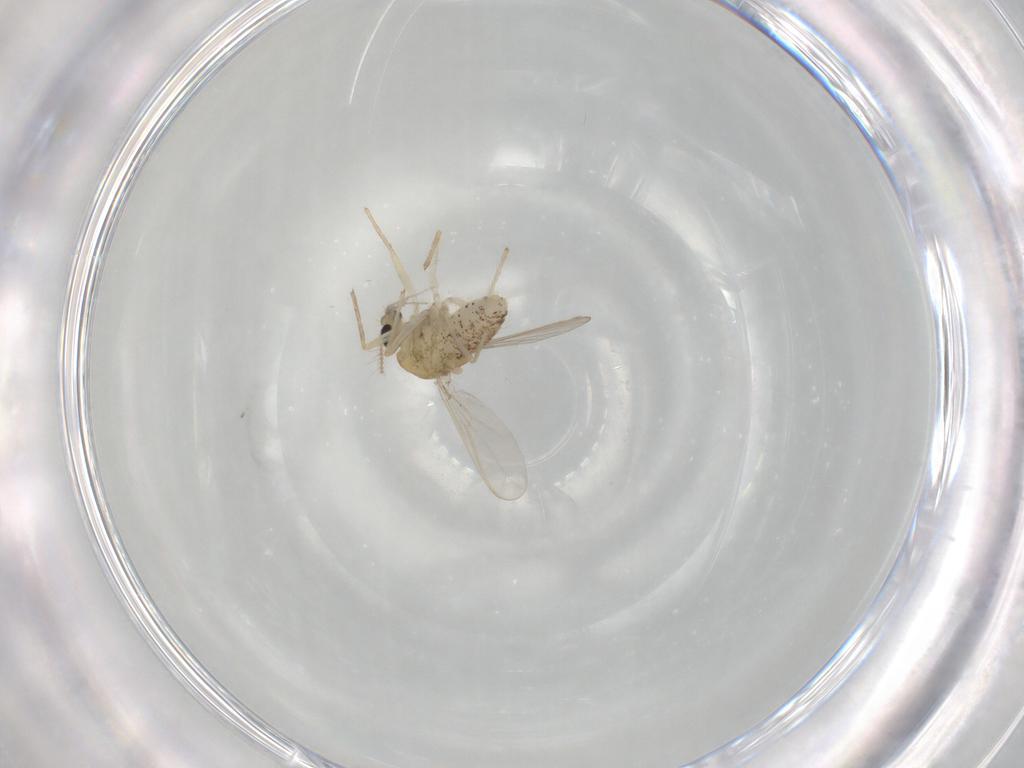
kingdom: Animalia
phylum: Arthropoda
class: Insecta
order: Diptera
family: Chironomidae
